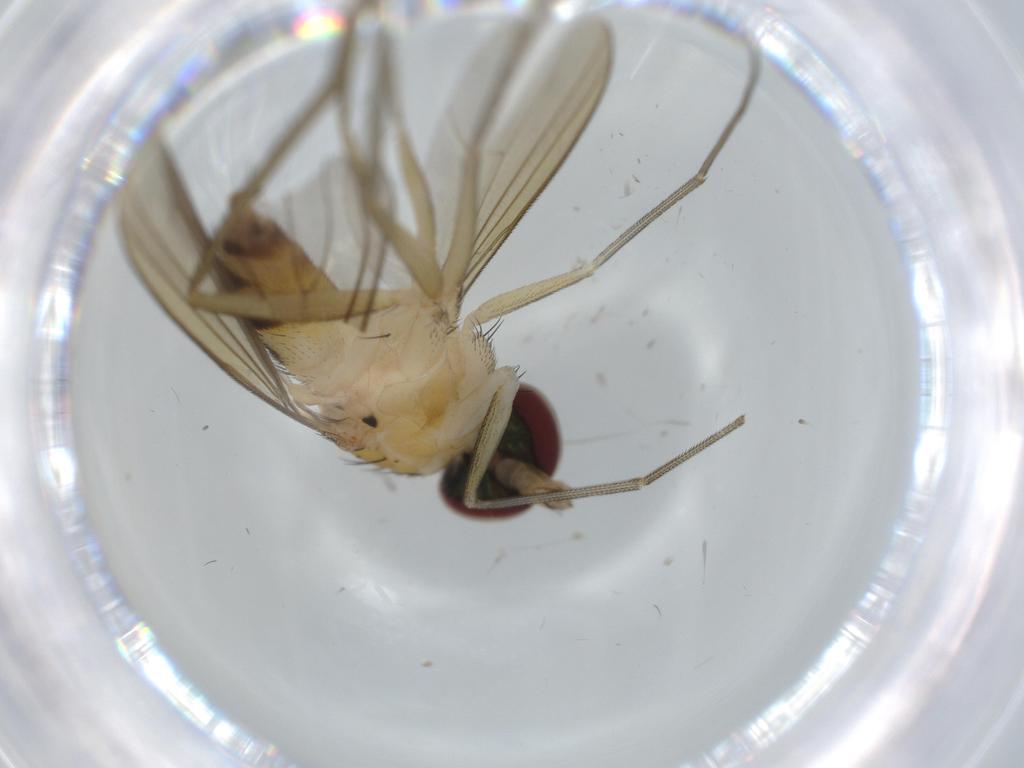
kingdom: Animalia
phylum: Arthropoda
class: Insecta
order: Diptera
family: Dolichopodidae
